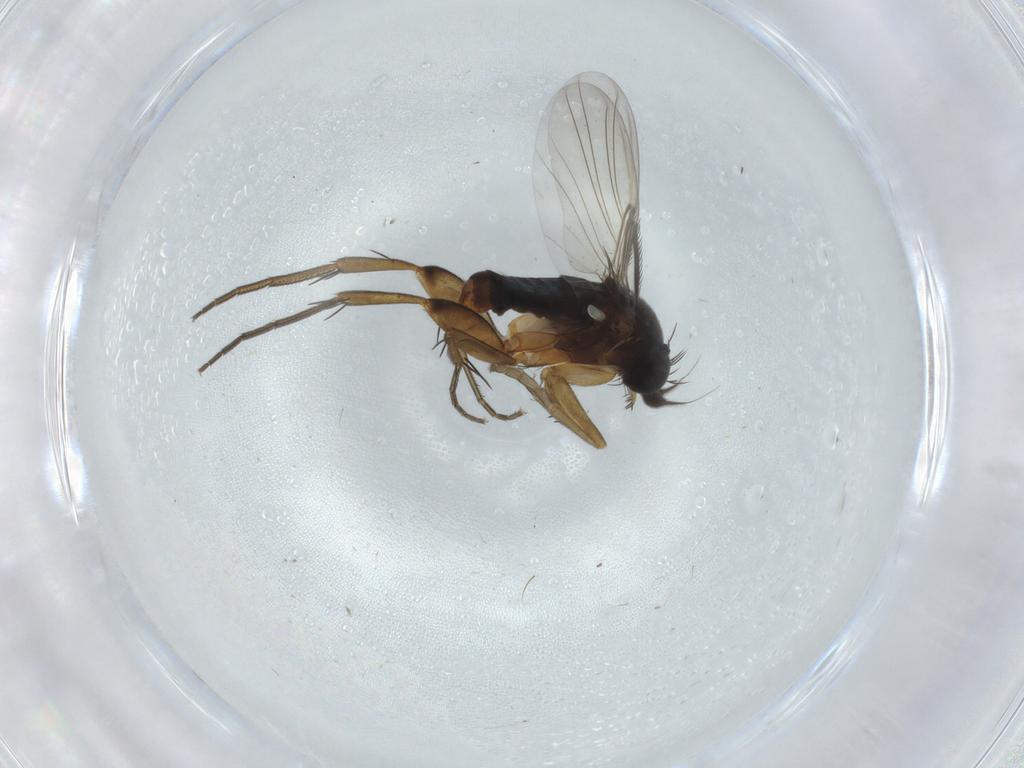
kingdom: Animalia
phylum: Arthropoda
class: Insecta
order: Diptera
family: Phoridae
